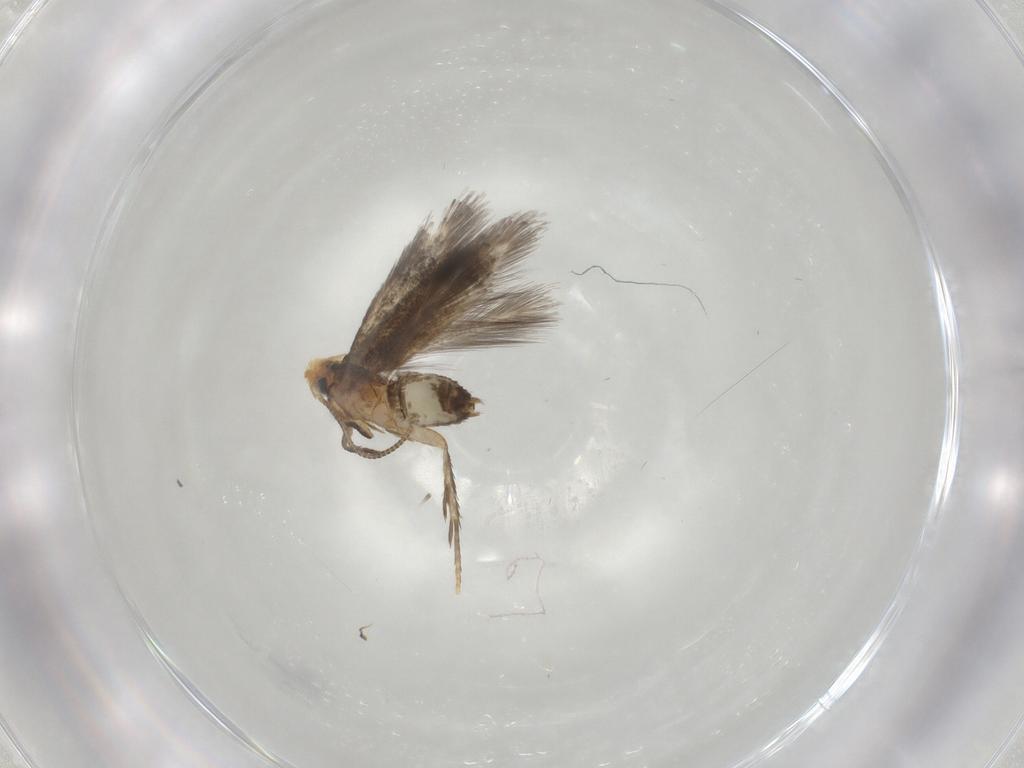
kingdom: Animalia
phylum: Arthropoda
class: Insecta
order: Lepidoptera
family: Nepticulidae
